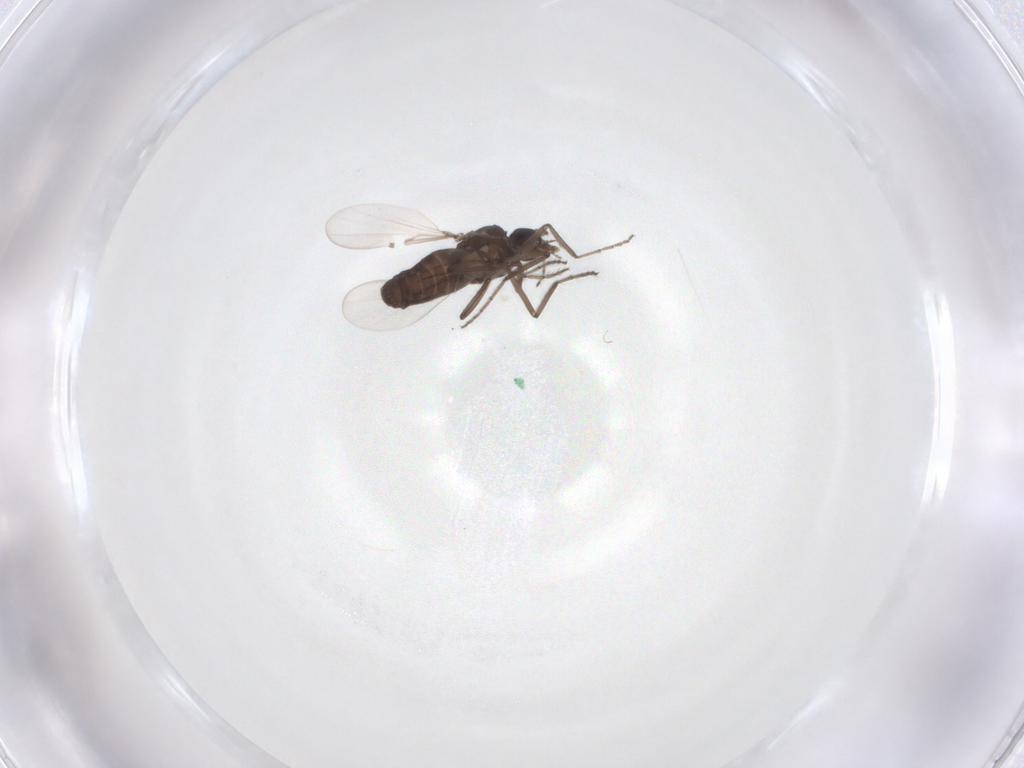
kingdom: Animalia
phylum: Arthropoda
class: Insecta
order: Diptera
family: Ceratopogonidae
